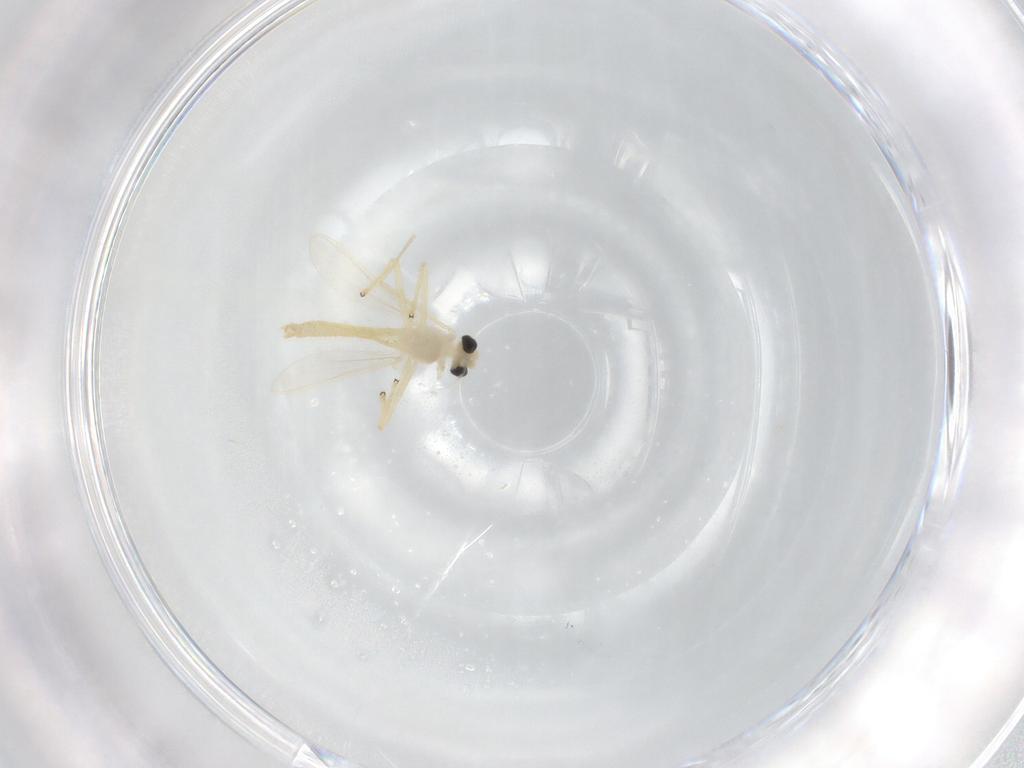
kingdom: Animalia
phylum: Arthropoda
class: Insecta
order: Diptera
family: Chironomidae
